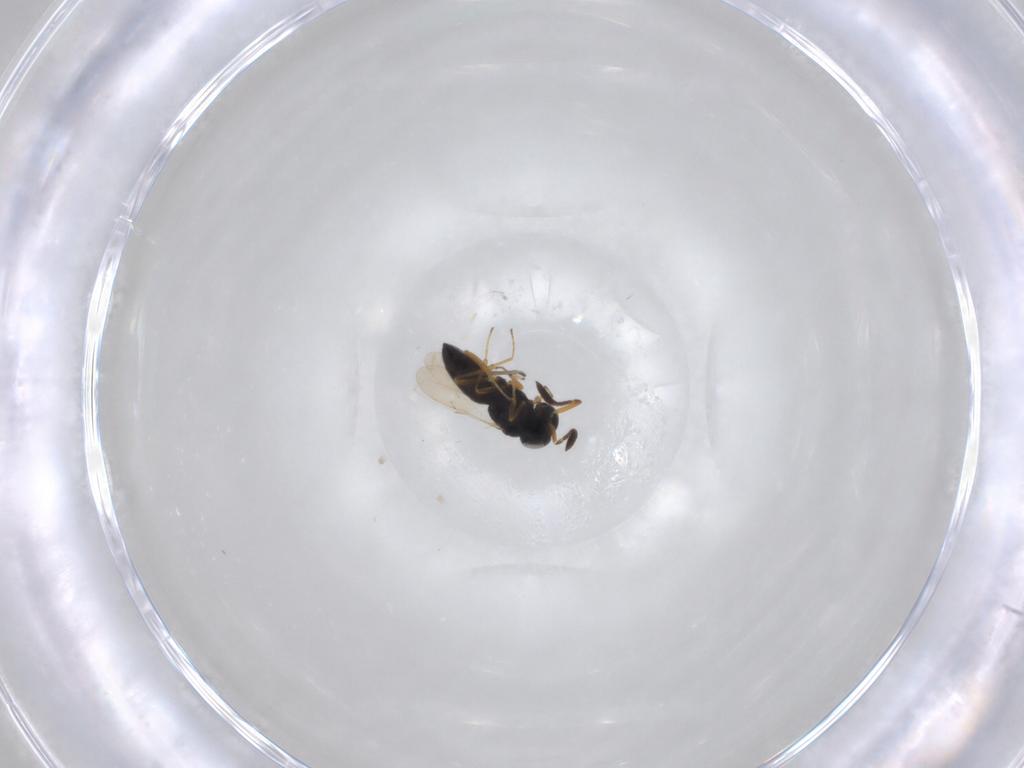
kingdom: Animalia
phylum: Arthropoda
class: Insecta
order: Hymenoptera
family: Scelionidae
